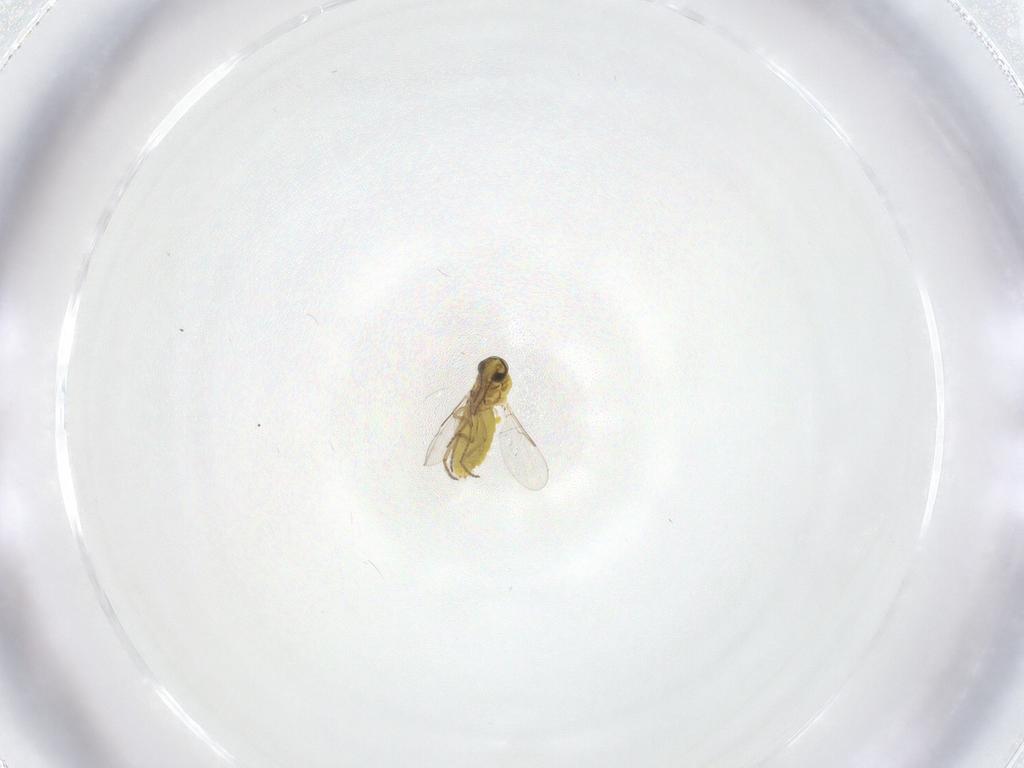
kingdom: Animalia
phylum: Arthropoda
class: Insecta
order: Diptera
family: Ceratopogonidae
